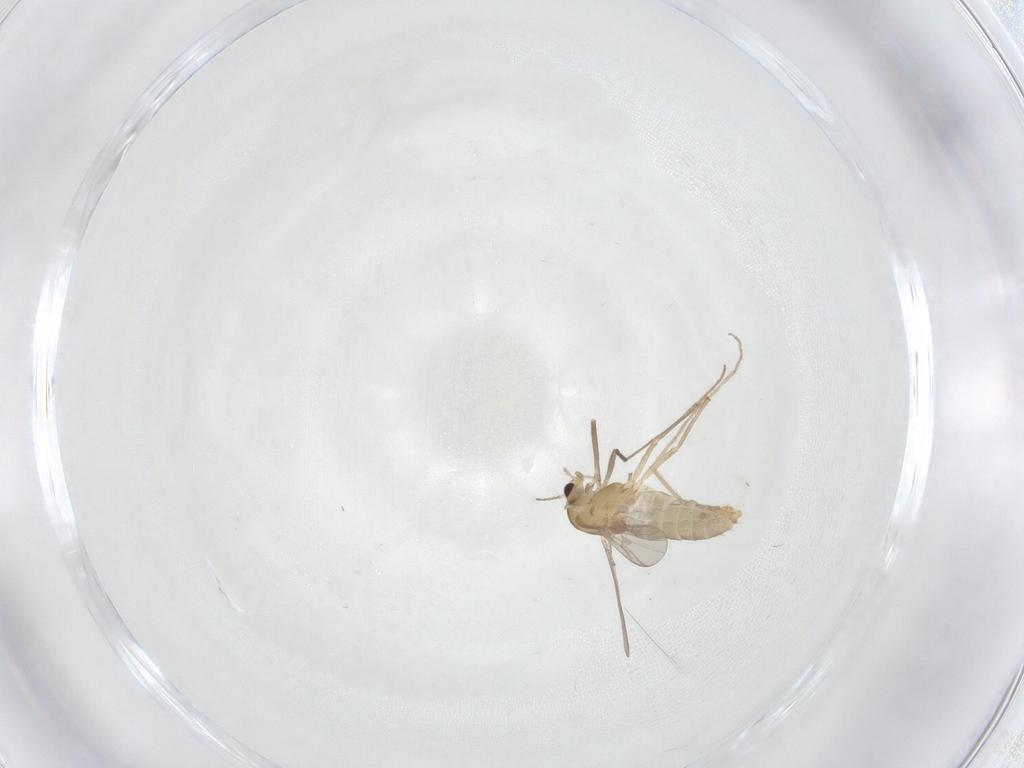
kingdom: Animalia
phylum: Arthropoda
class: Insecta
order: Diptera
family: Chironomidae
